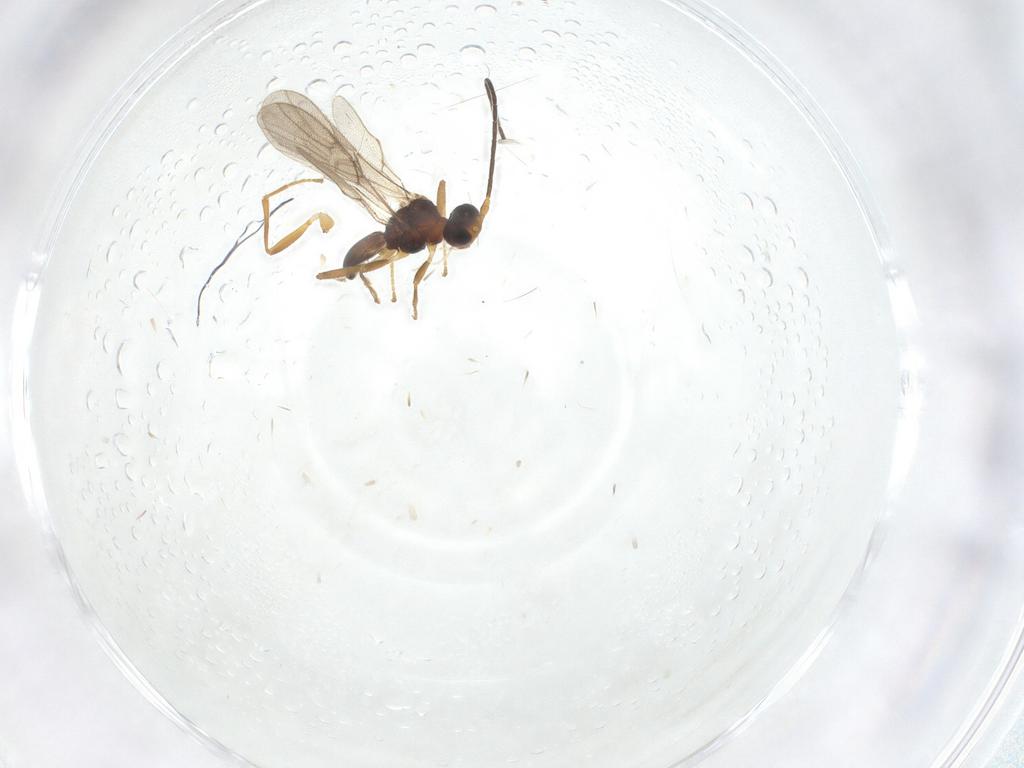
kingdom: Animalia
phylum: Arthropoda
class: Insecta
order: Hymenoptera
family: Braconidae
